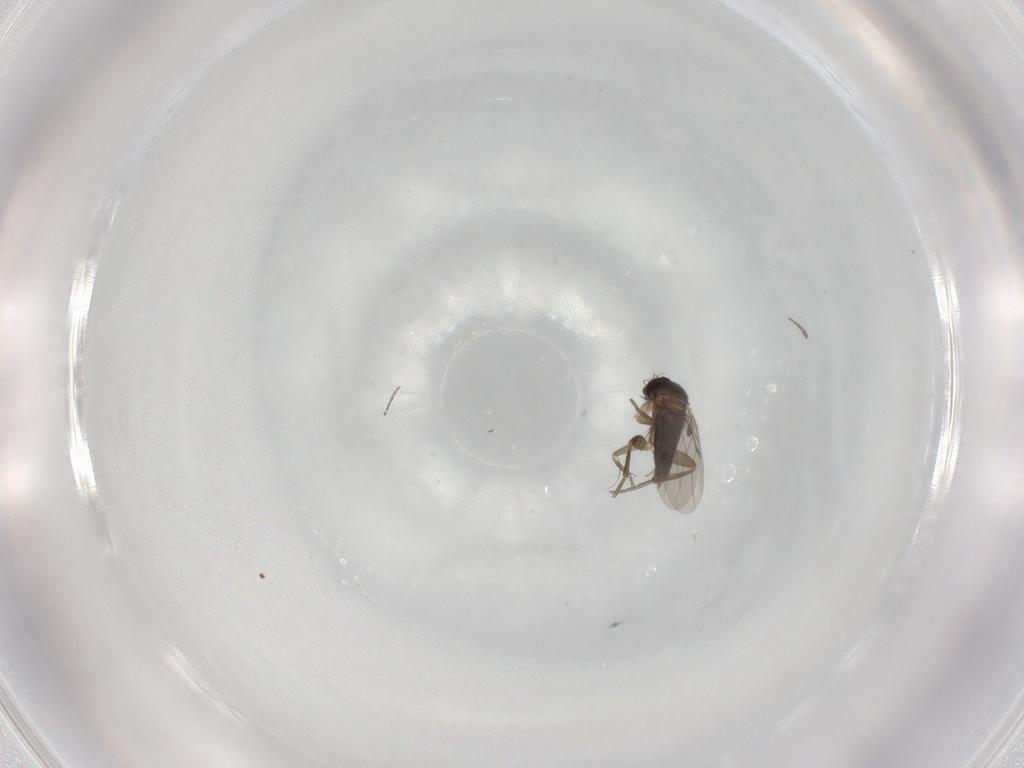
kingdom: Animalia
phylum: Arthropoda
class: Insecta
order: Diptera
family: Phoridae
